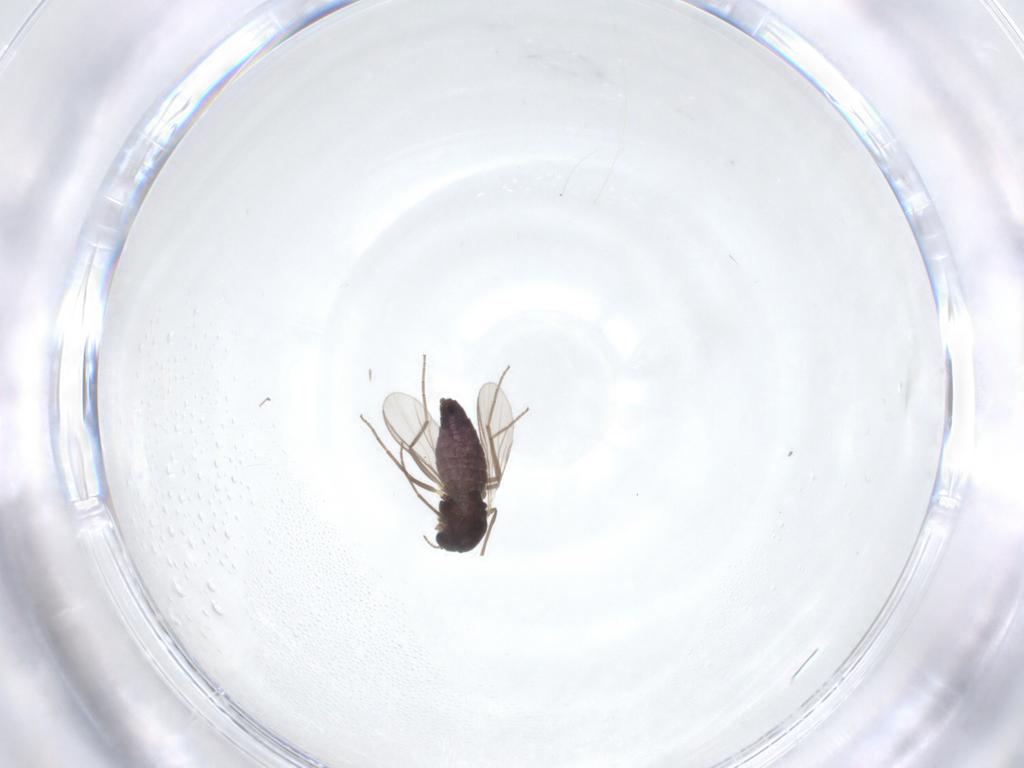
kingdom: Animalia
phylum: Arthropoda
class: Insecta
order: Diptera
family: Chironomidae
